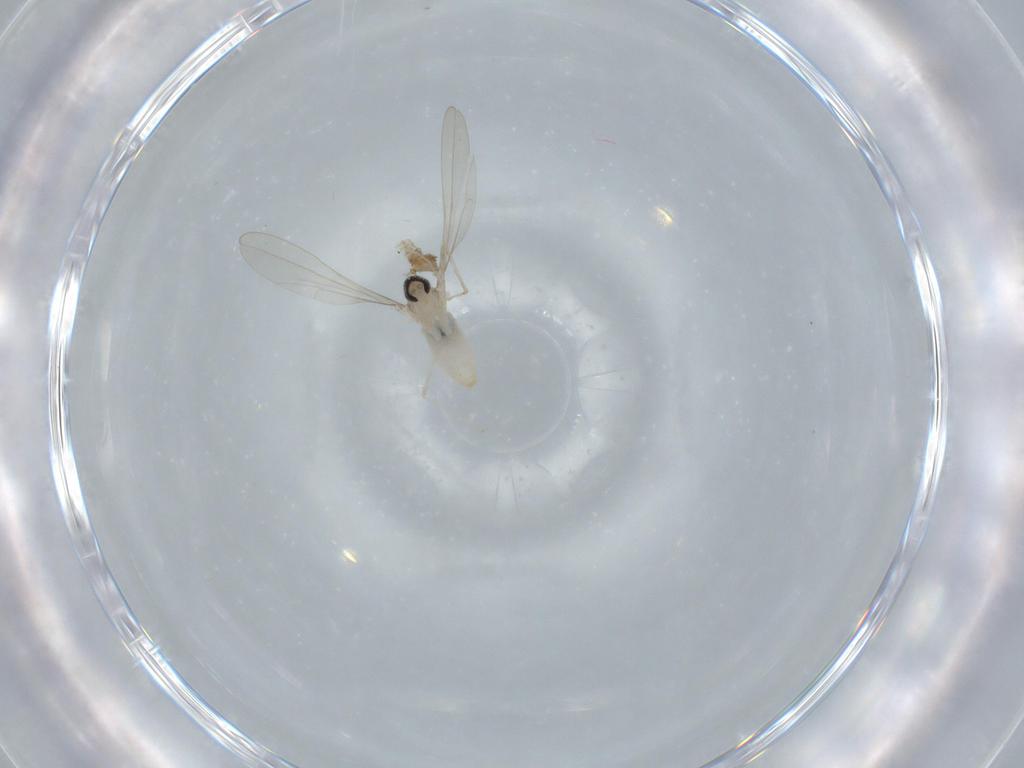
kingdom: Animalia
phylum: Arthropoda
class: Insecta
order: Diptera
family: Cecidomyiidae
